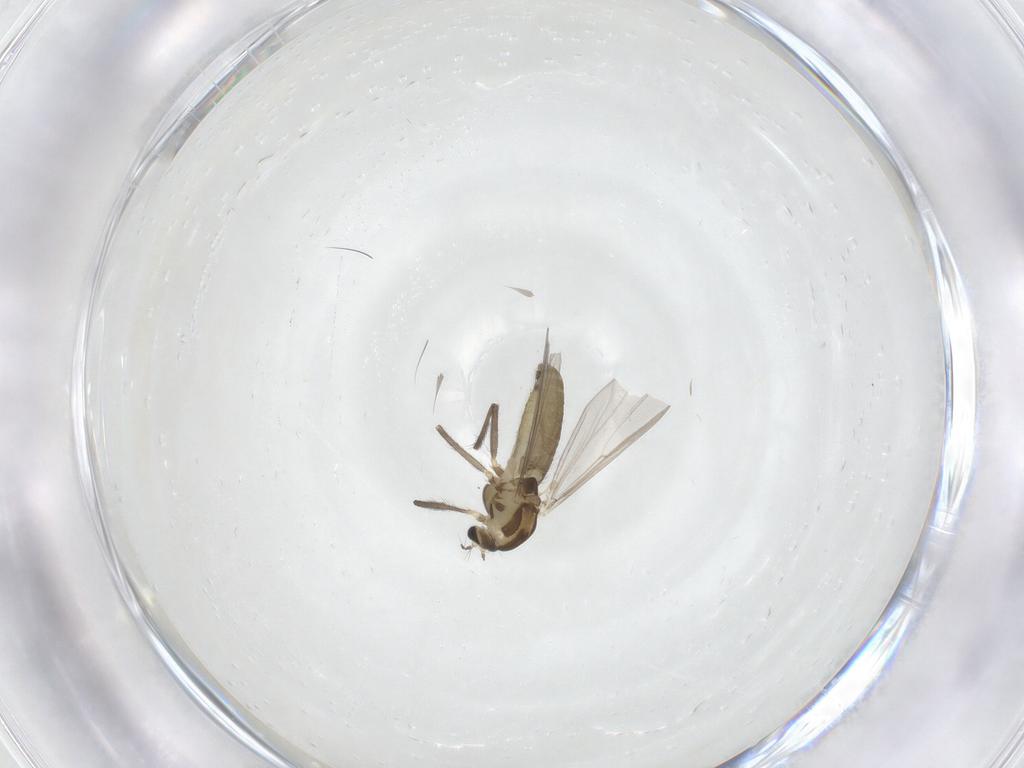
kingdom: Animalia
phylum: Arthropoda
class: Insecta
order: Diptera
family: Chironomidae
